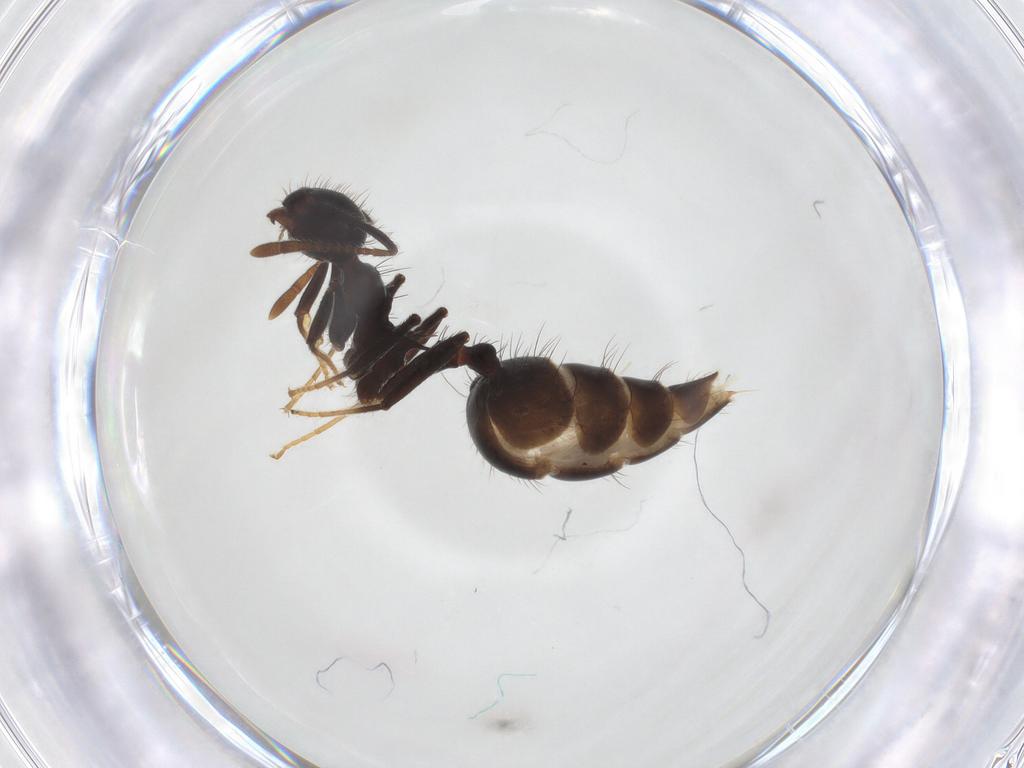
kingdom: Animalia
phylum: Arthropoda
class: Insecta
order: Hymenoptera
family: Formicidae
